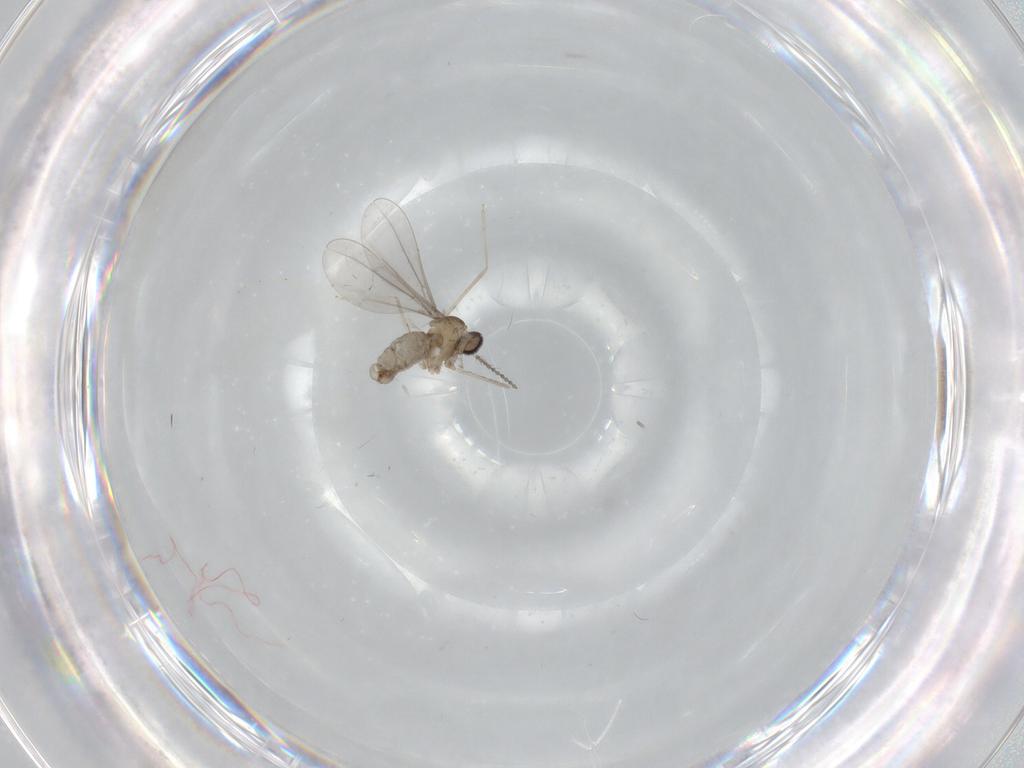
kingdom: Animalia
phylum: Arthropoda
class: Insecta
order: Diptera
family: Cecidomyiidae
